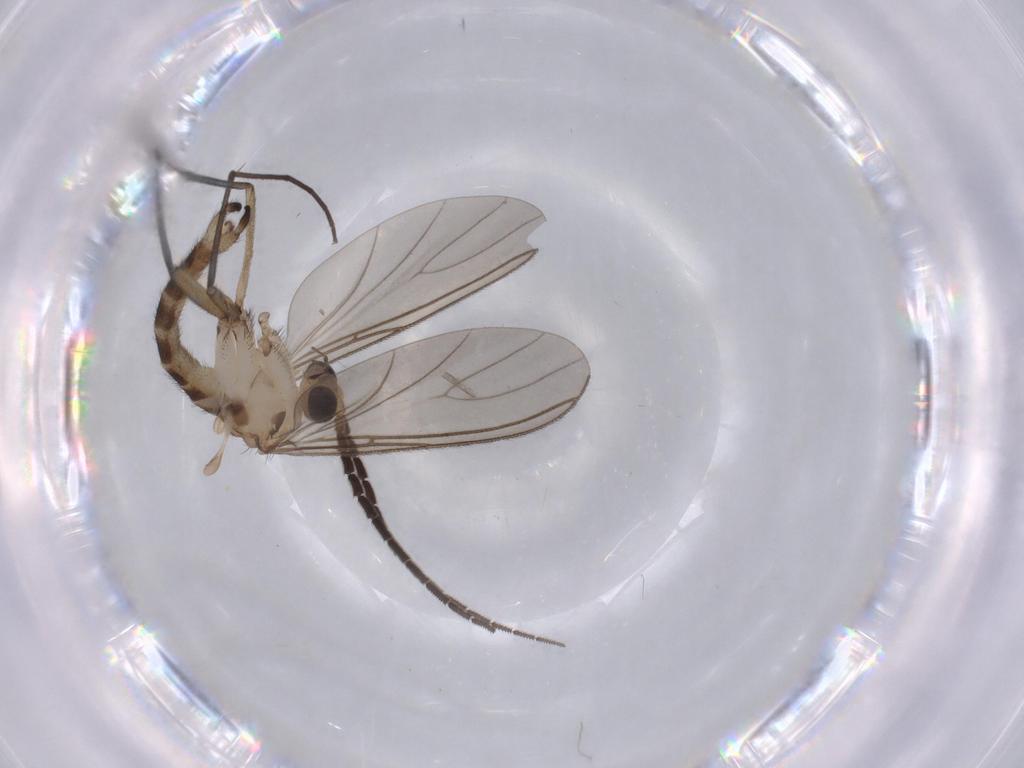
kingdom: Animalia
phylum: Arthropoda
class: Insecta
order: Diptera
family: Sciaridae
